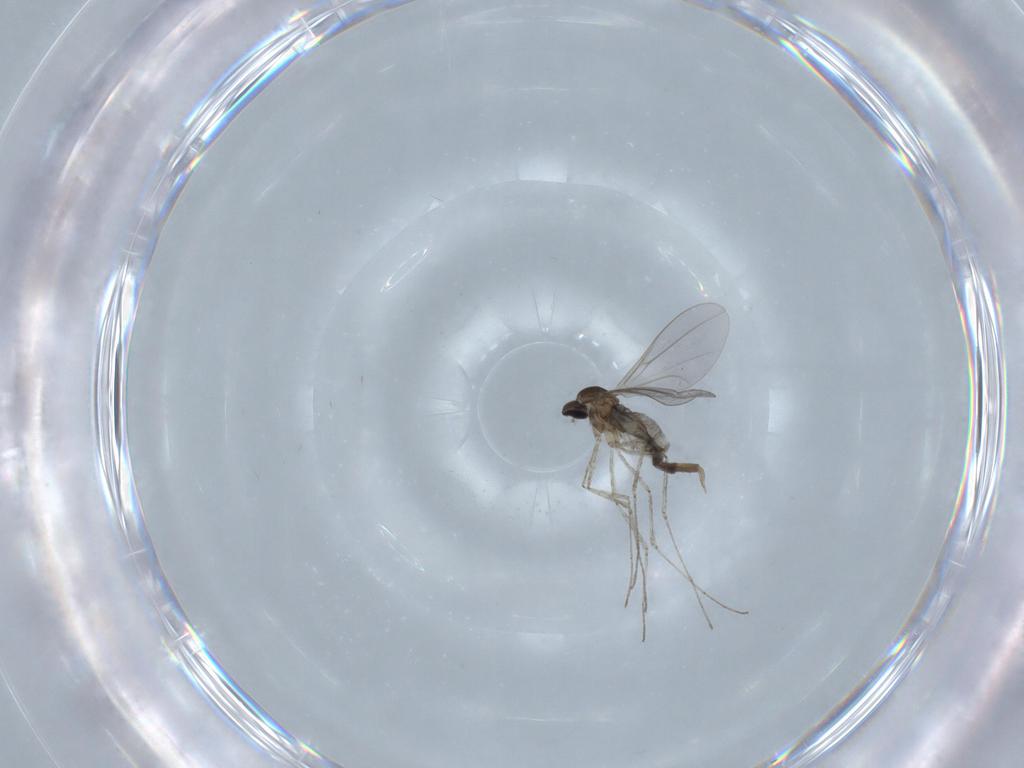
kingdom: Animalia
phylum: Arthropoda
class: Insecta
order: Diptera
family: Cecidomyiidae
